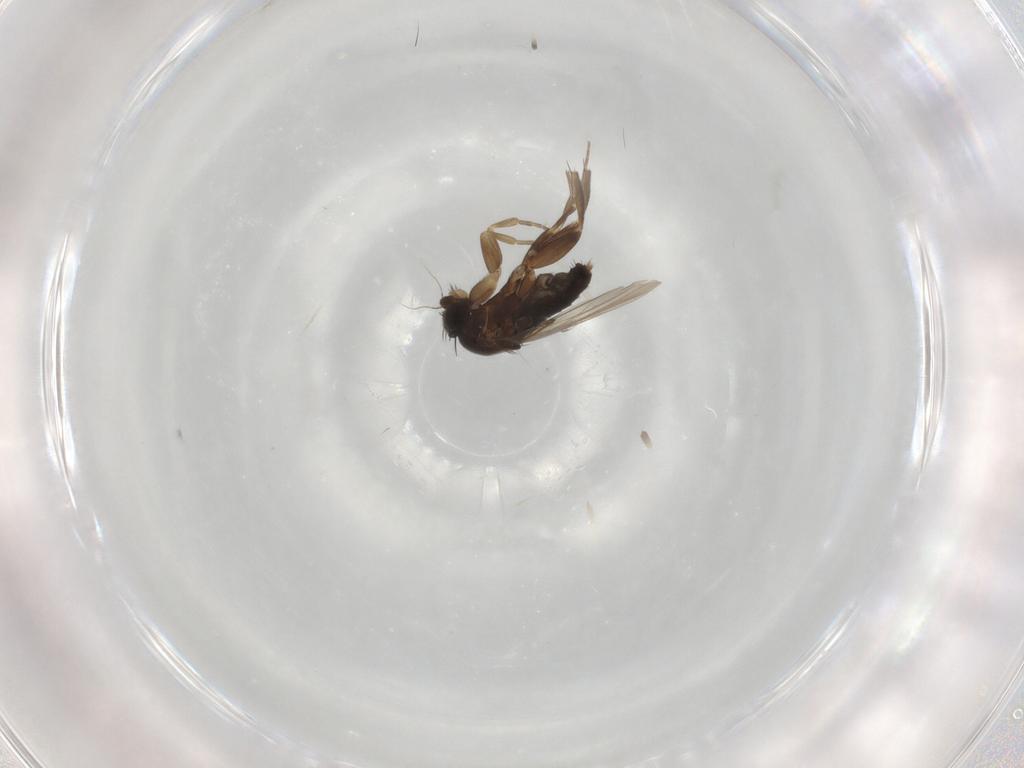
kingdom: Animalia
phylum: Arthropoda
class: Insecta
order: Diptera
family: Phoridae
